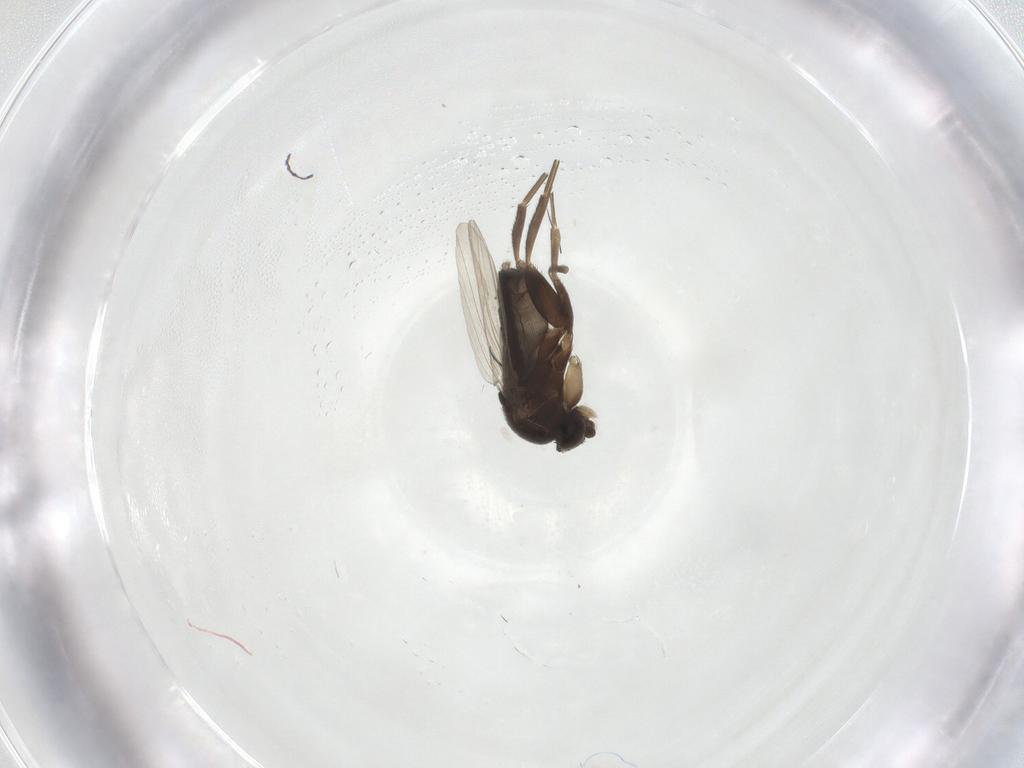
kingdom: Animalia
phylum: Arthropoda
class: Insecta
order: Diptera
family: Phoridae
